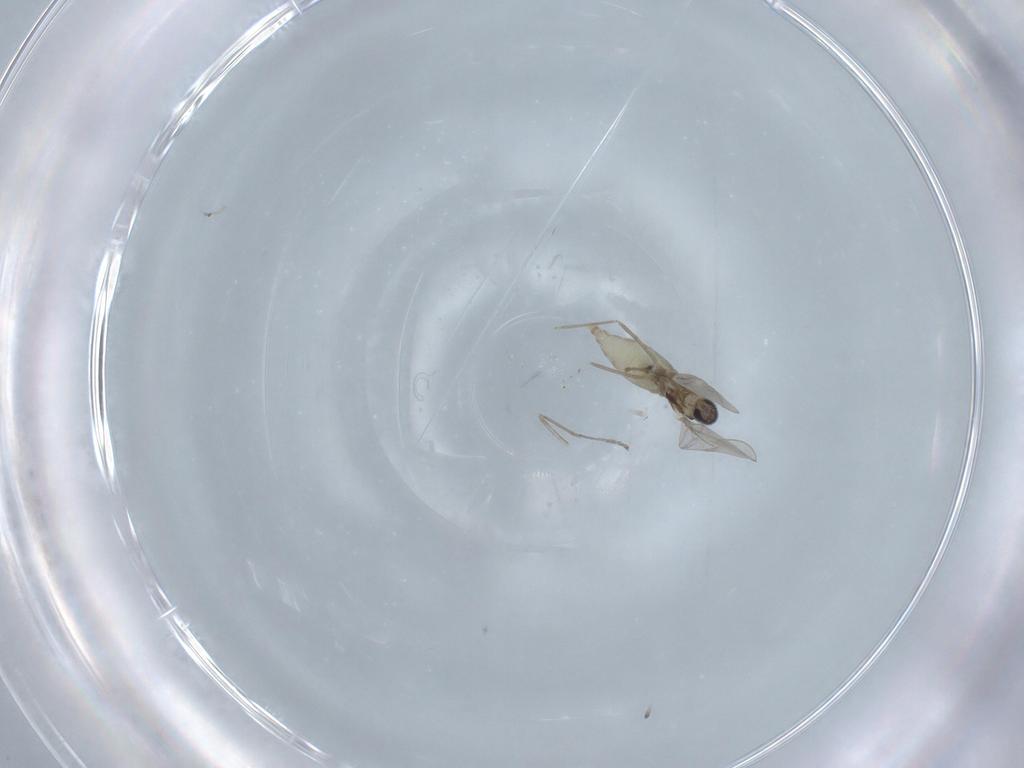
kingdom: Animalia
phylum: Arthropoda
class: Insecta
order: Diptera
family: Cecidomyiidae
